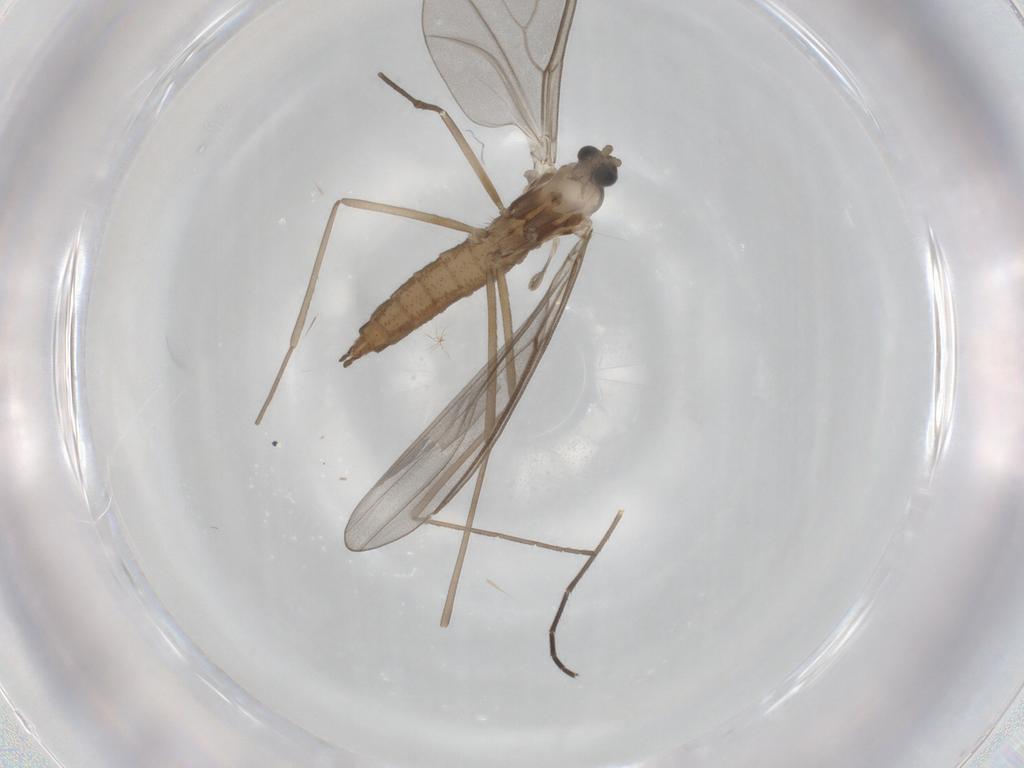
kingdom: Animalia
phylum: Arthropoda
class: Insecta
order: Diptera
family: Cecidomyiidae
